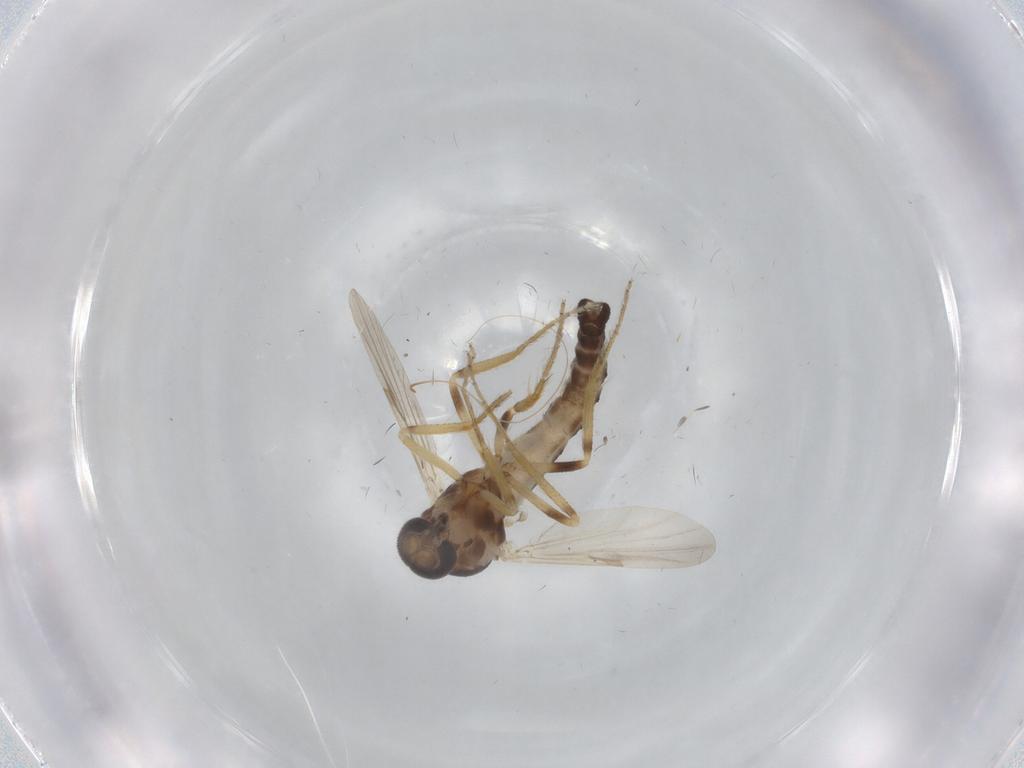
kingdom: Animalia
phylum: Arthropoda
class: Insecta
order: Diptera
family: Ceratopogonidae
